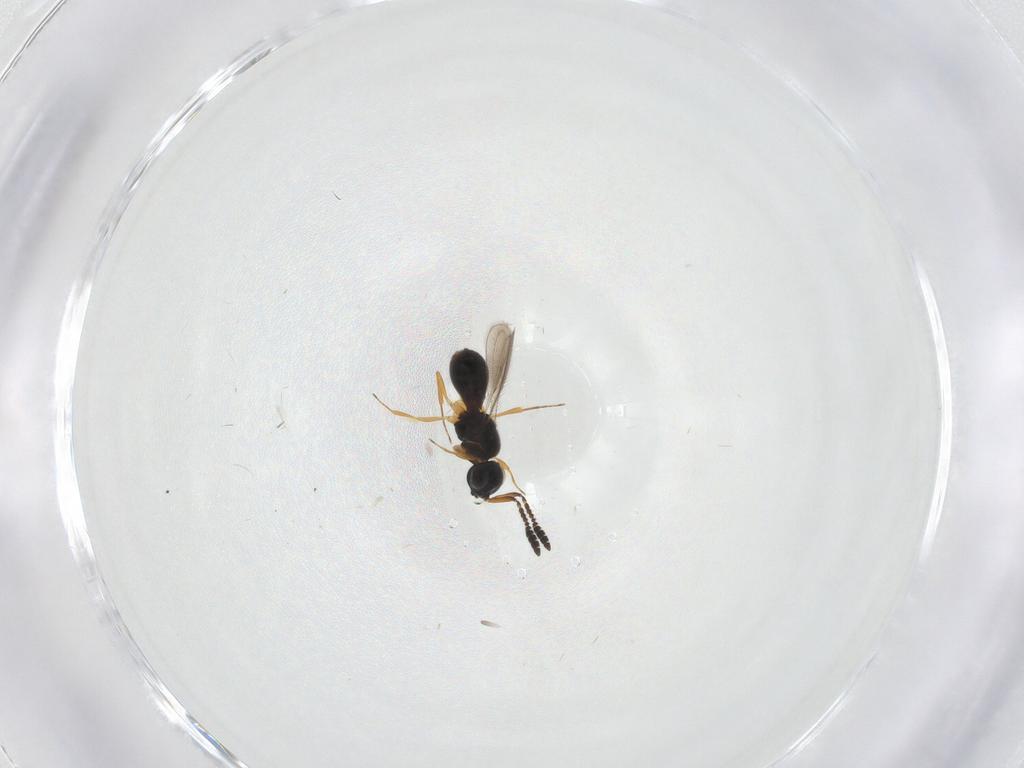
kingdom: Animalia
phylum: Arthropoda
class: Insecta
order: Hymenoptera
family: Scelionidae
